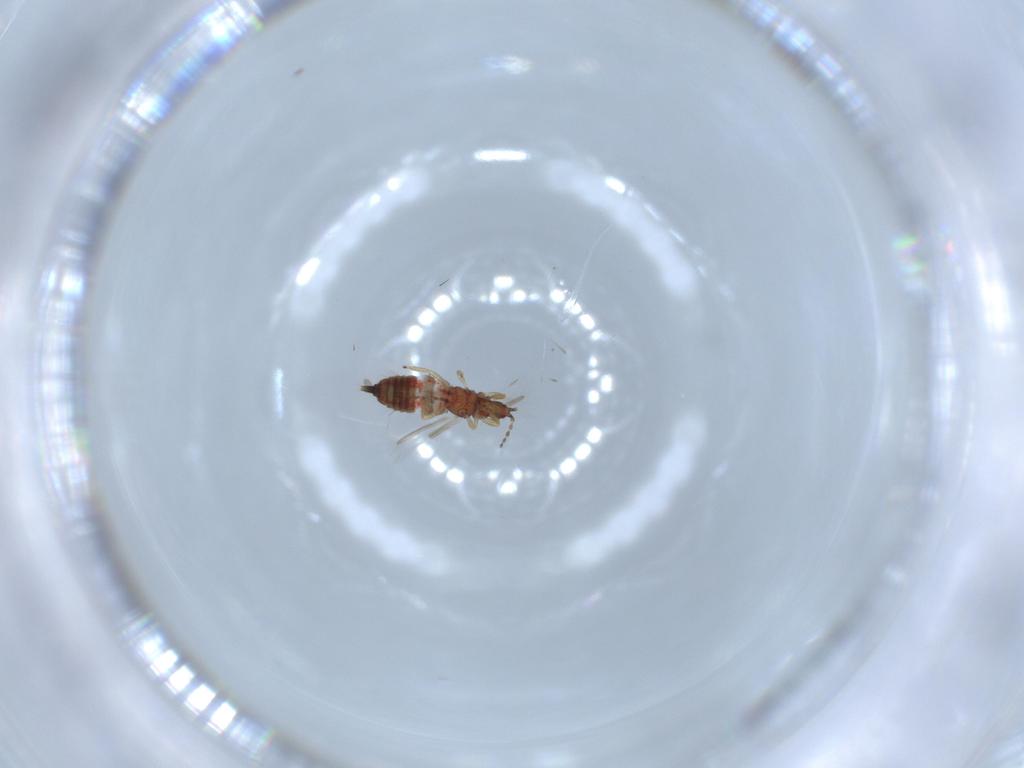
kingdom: Animalia
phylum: Arthropoda
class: Insecta
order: Thysanoptera
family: Phlaeothripidae
